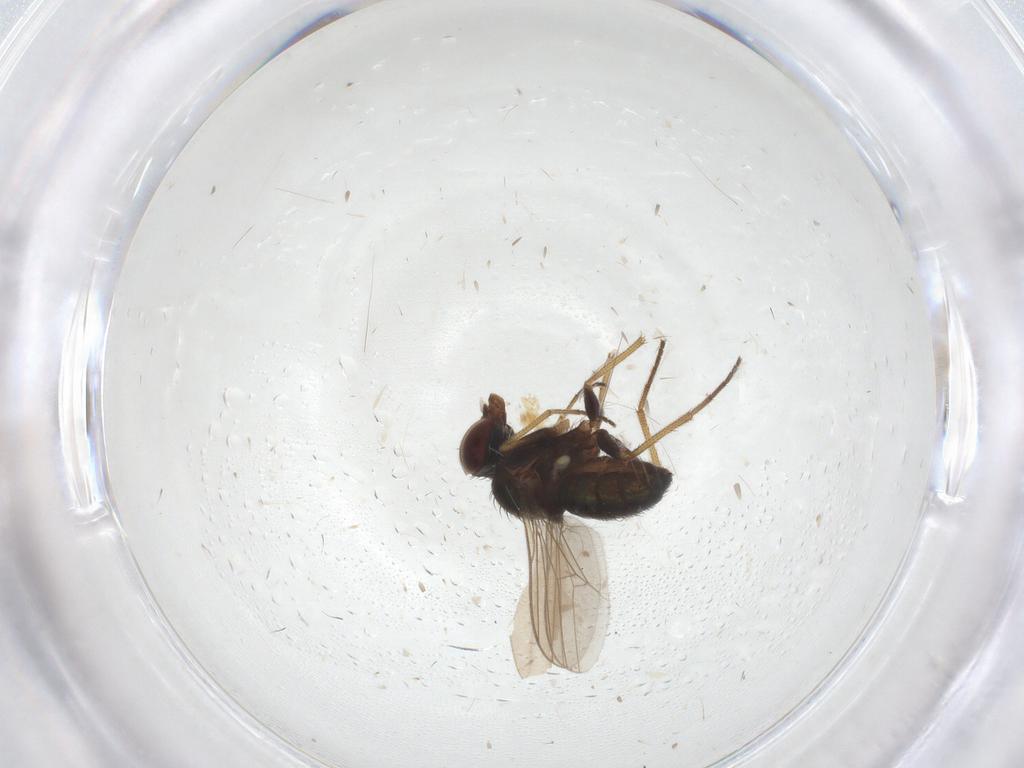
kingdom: Animalia
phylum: Arthropoda
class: Insecta
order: Diptera
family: Dolichopodidae
